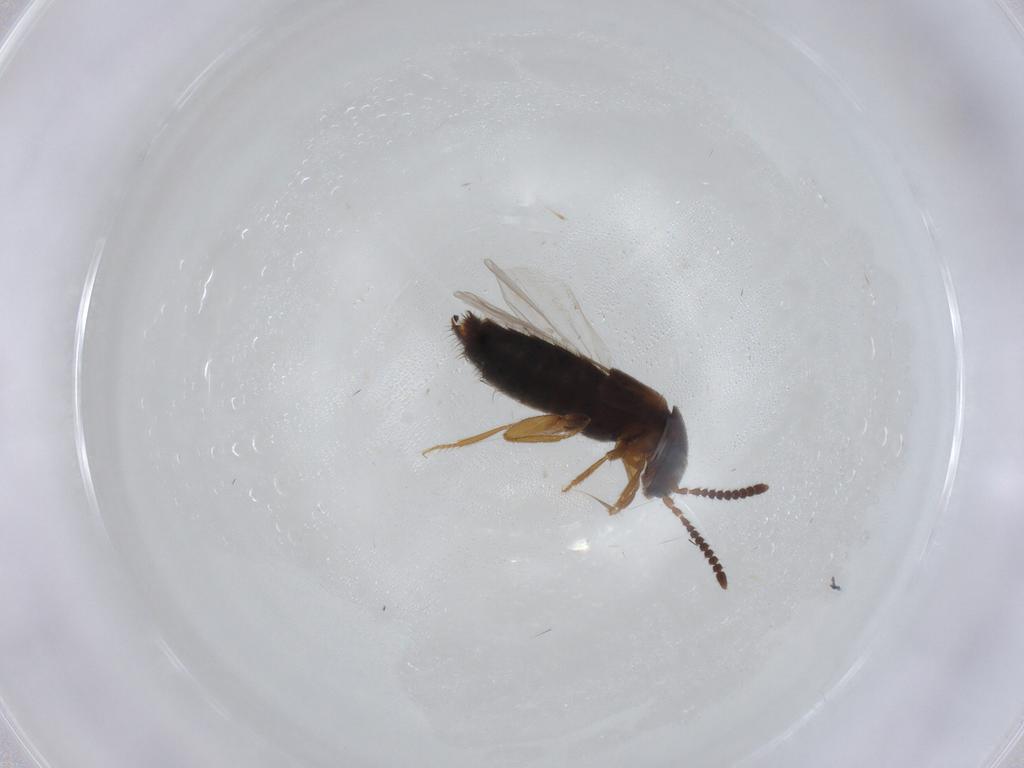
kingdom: Animalia
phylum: Arthropoda
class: Insecta
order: Coleoptera
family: Staphylinidae
